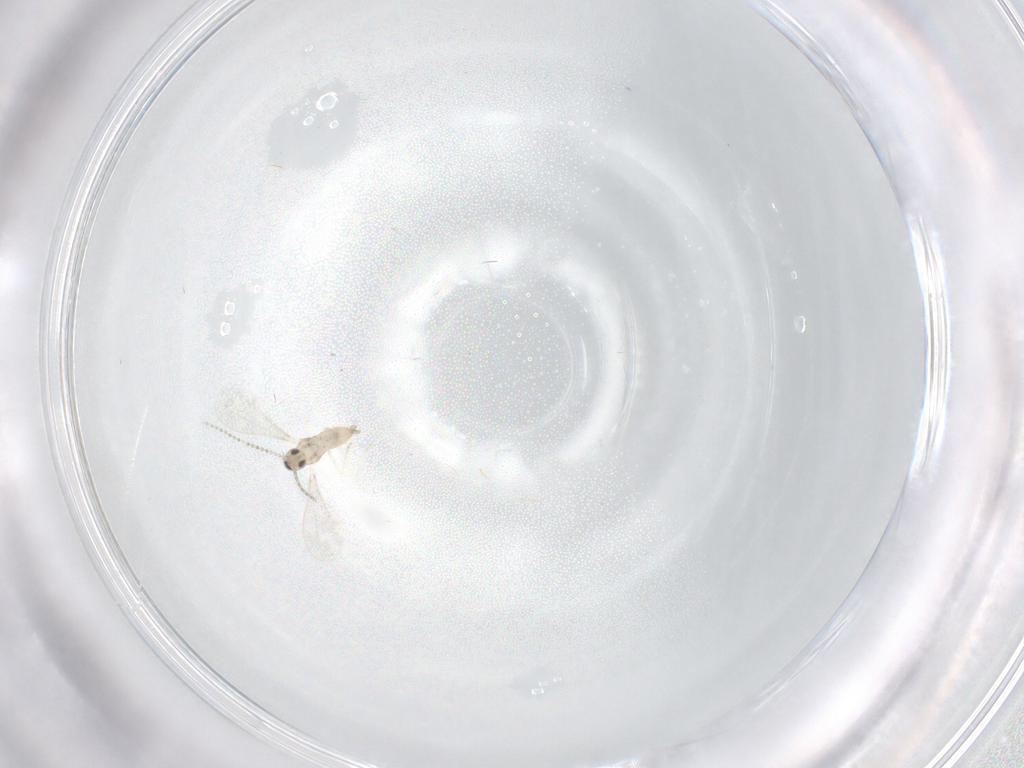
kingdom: Animalia
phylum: Arthropoda
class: Insecta
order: Diptera
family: Cecidomyiidae
